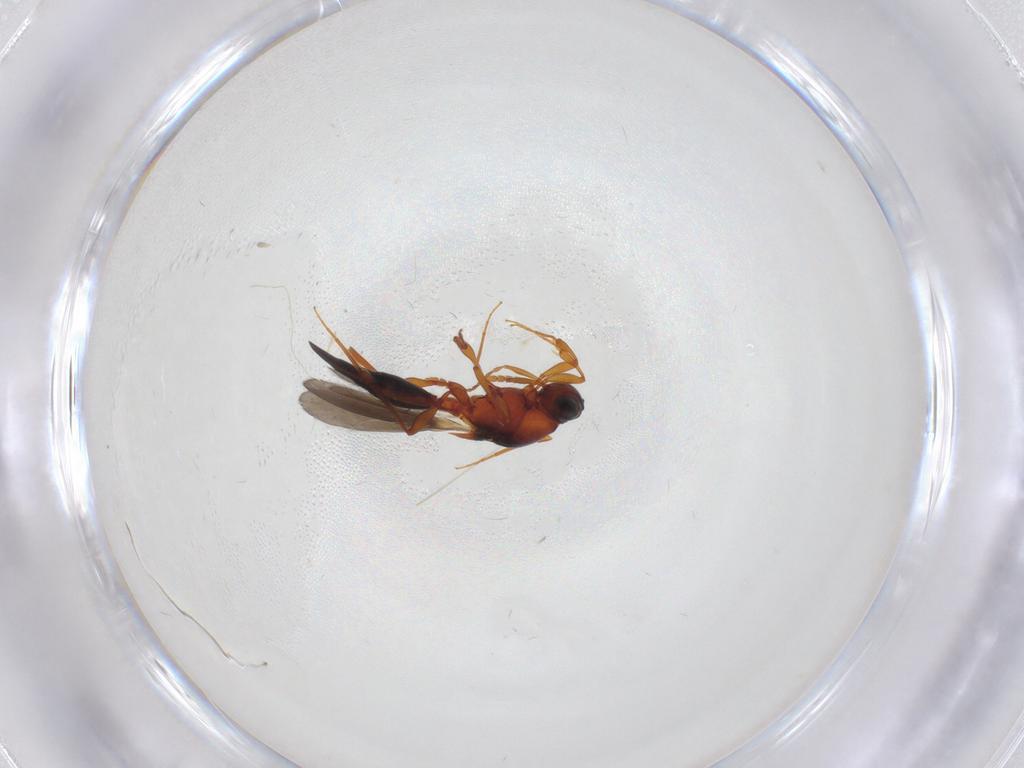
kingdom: Animalia
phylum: Arthropoda
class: Insecta
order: Hymenoptera
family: Platygastridae
